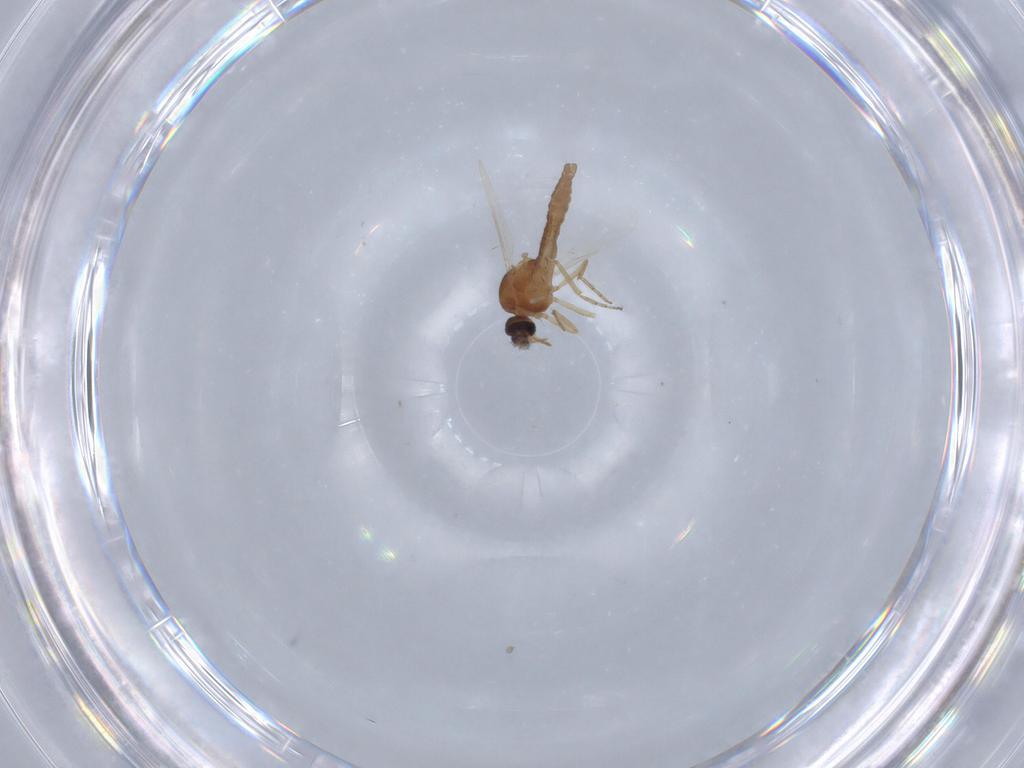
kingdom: Animalia
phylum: Arthropoda
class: Insecta
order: Diptera
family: Ceratopogonidae
